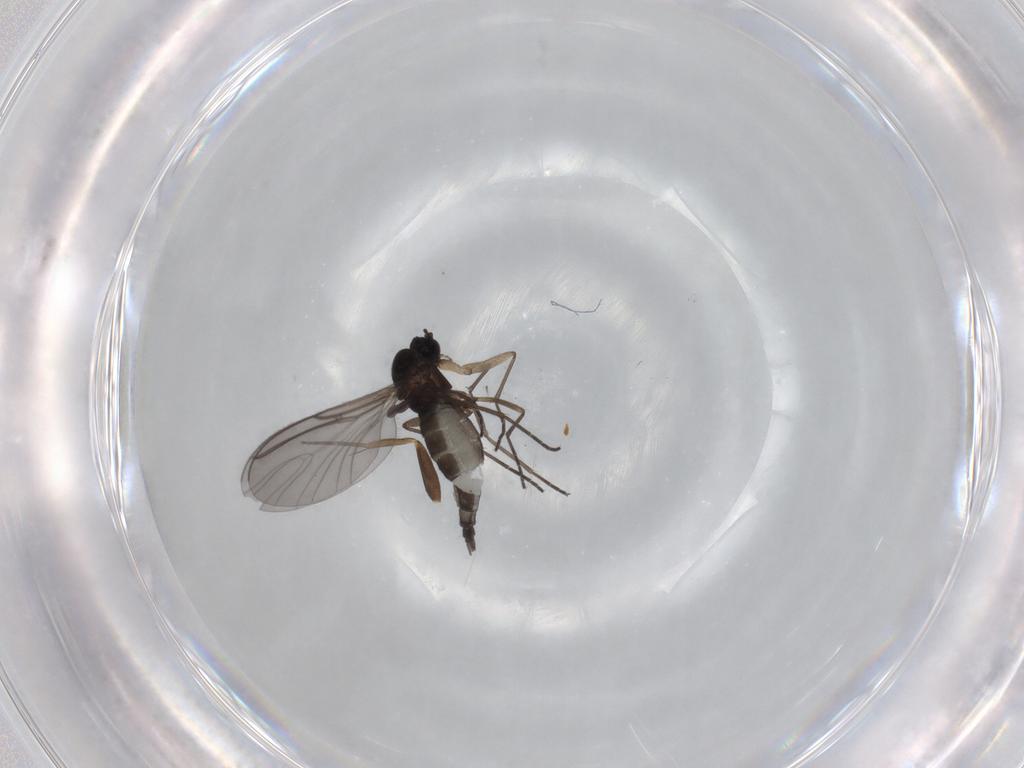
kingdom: Animalia
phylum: Arthropoda
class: Insecta
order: Diptera
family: Sciaridae
